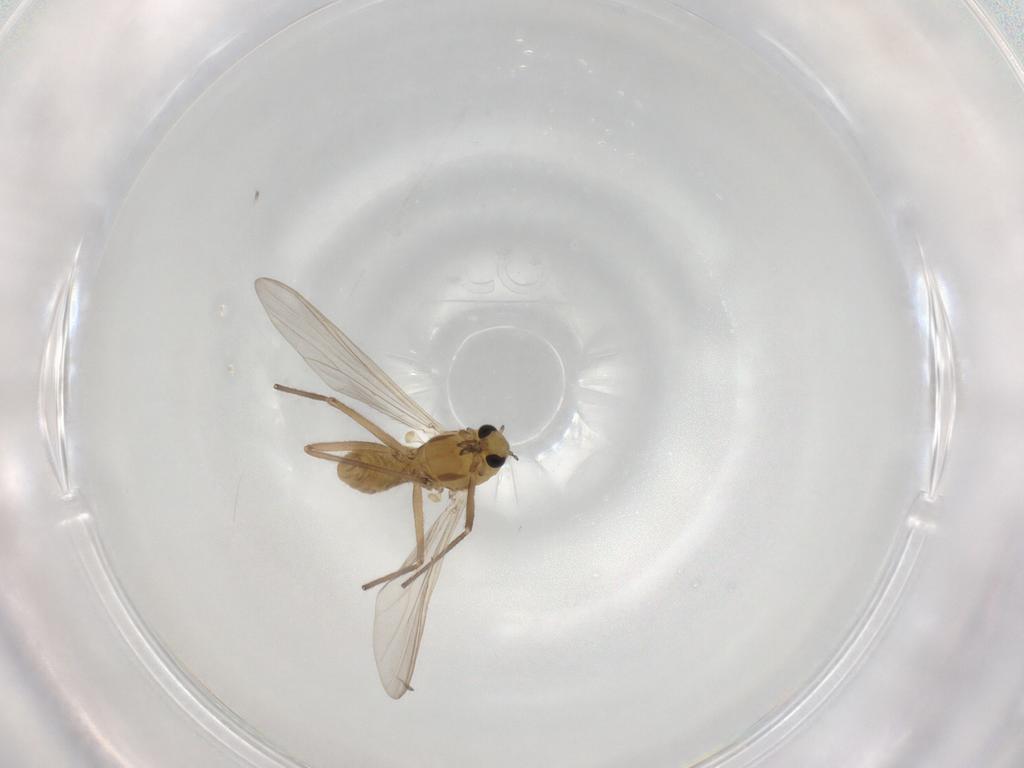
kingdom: Animalia
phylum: Arthropoda
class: Insecta
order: Diptera
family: Chironomidae
